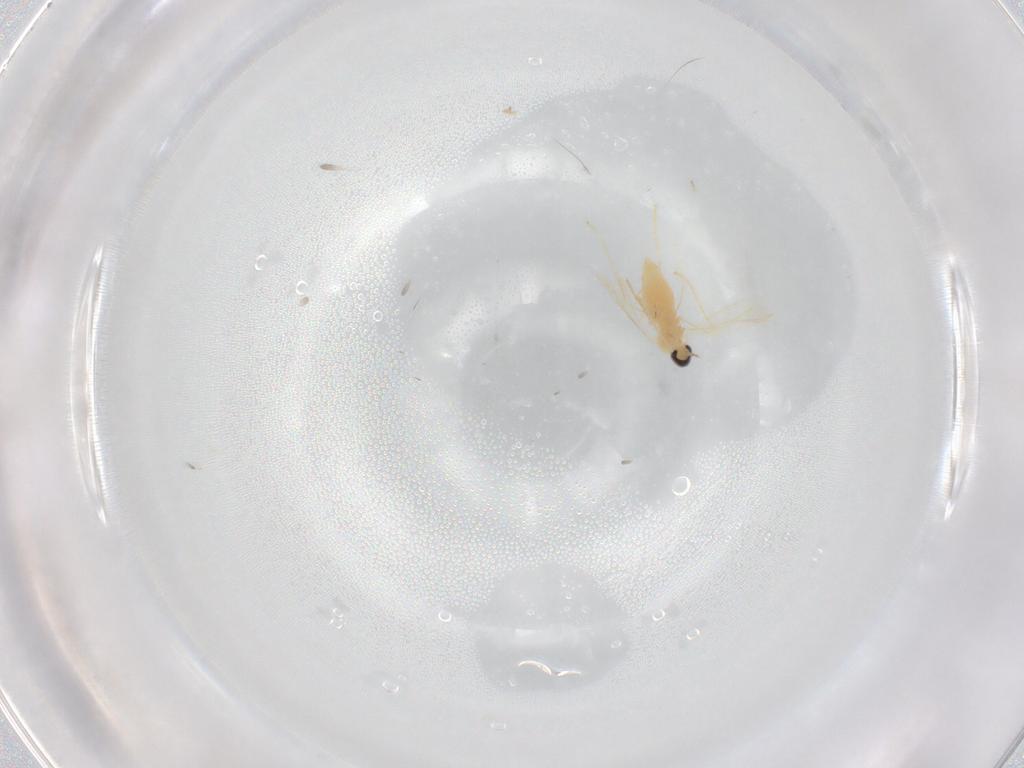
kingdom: Animalia
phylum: Arthropoda
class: Insecta
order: Diptera
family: Cecidomyiidae
